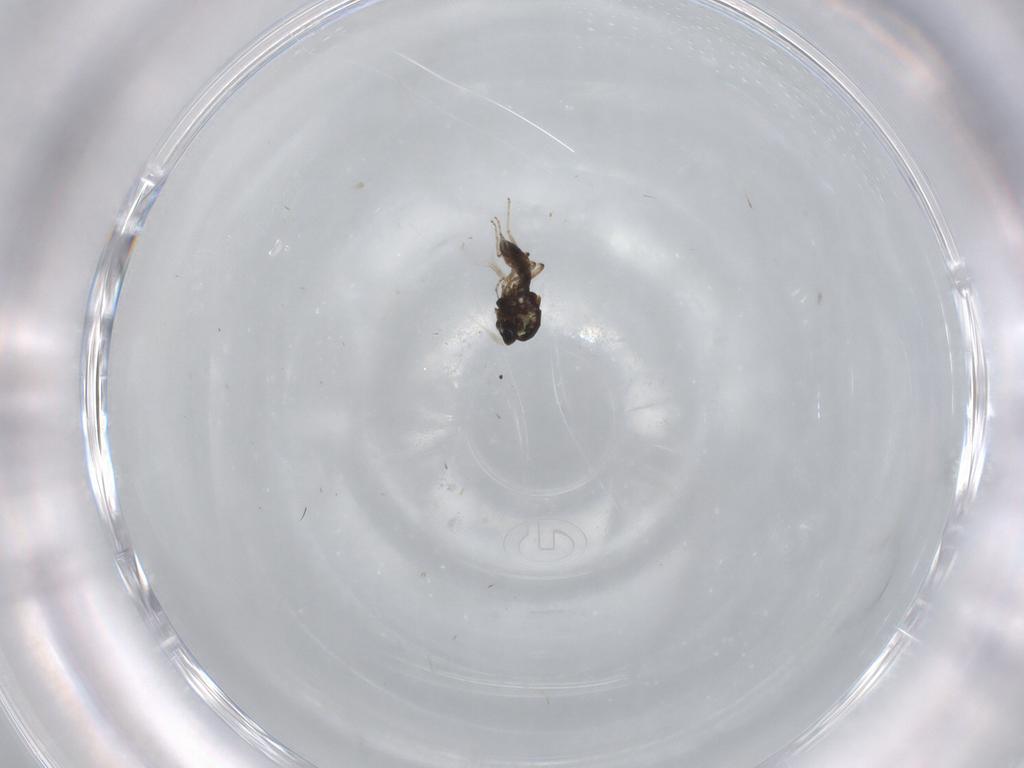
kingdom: Animalia
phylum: Arthropoda
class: Insecta
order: Diptera
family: Ceratopogonidae
